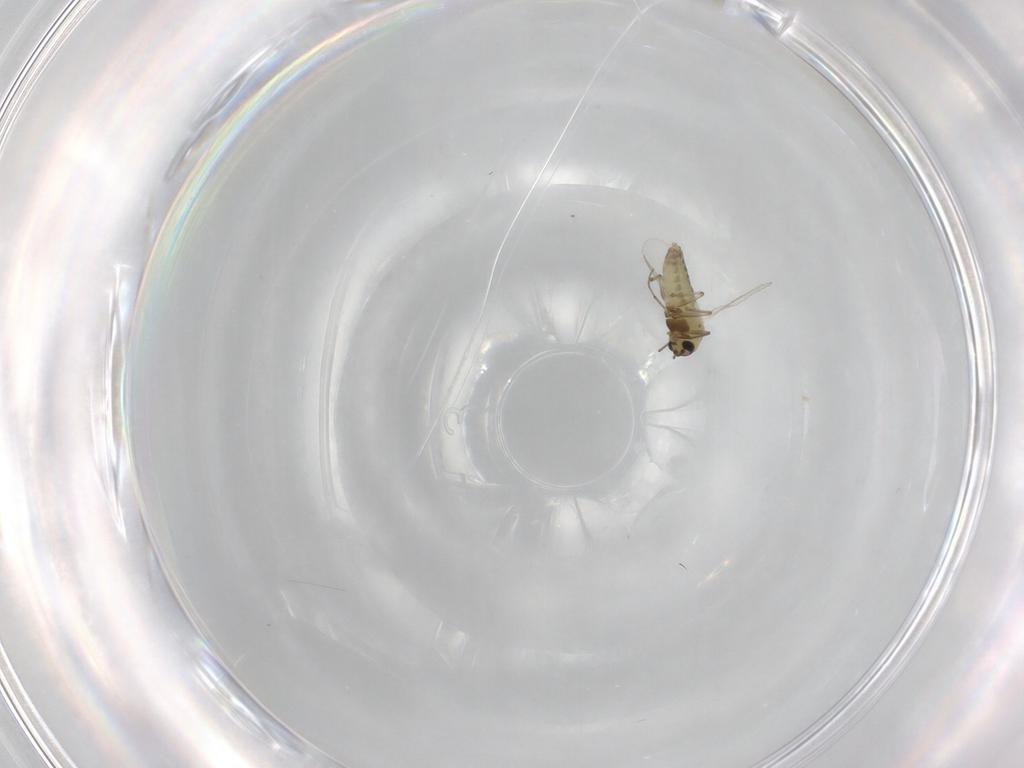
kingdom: Animalia
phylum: Arthropoda
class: Insecta
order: Diptera
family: Chironomidae
